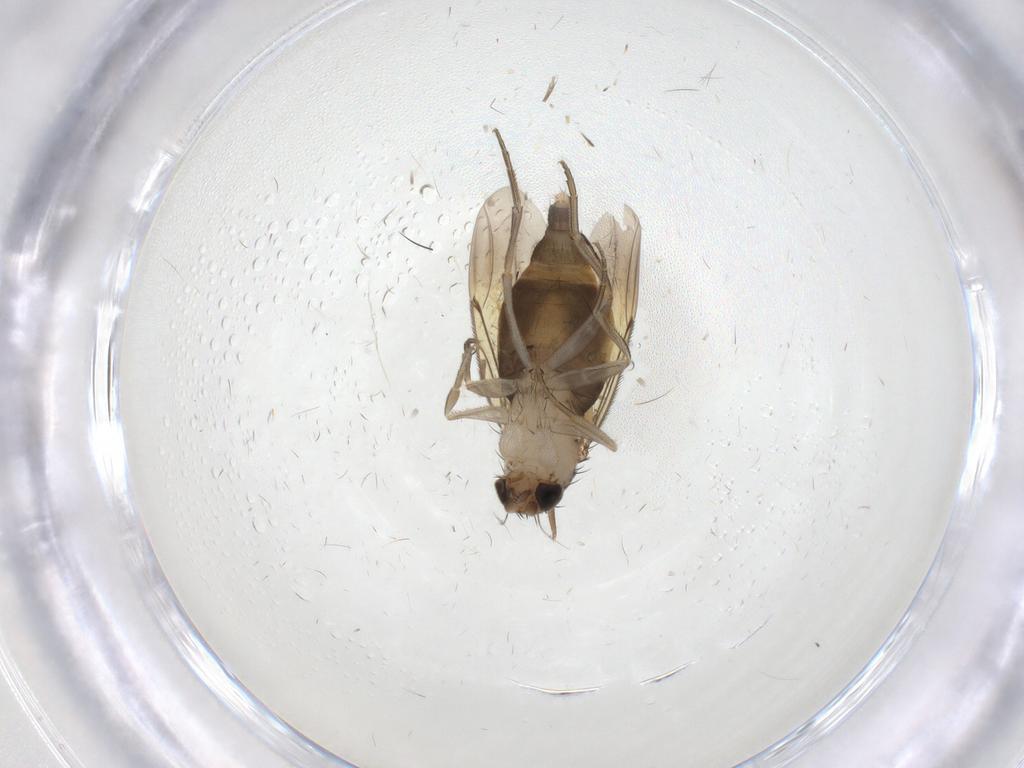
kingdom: Animalia
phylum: Arthropoda
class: Insecta
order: Diptera
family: Phoridae
